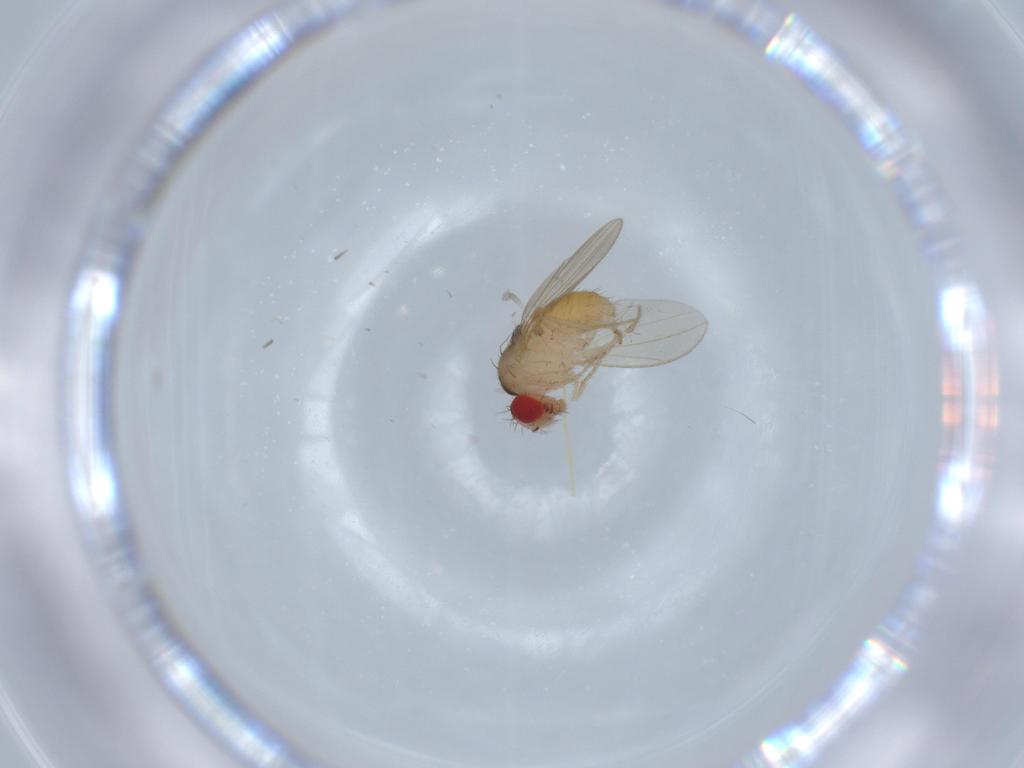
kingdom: Animalia
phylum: Arthropoda
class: Insecta
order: Diptera
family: Drosophilidae
